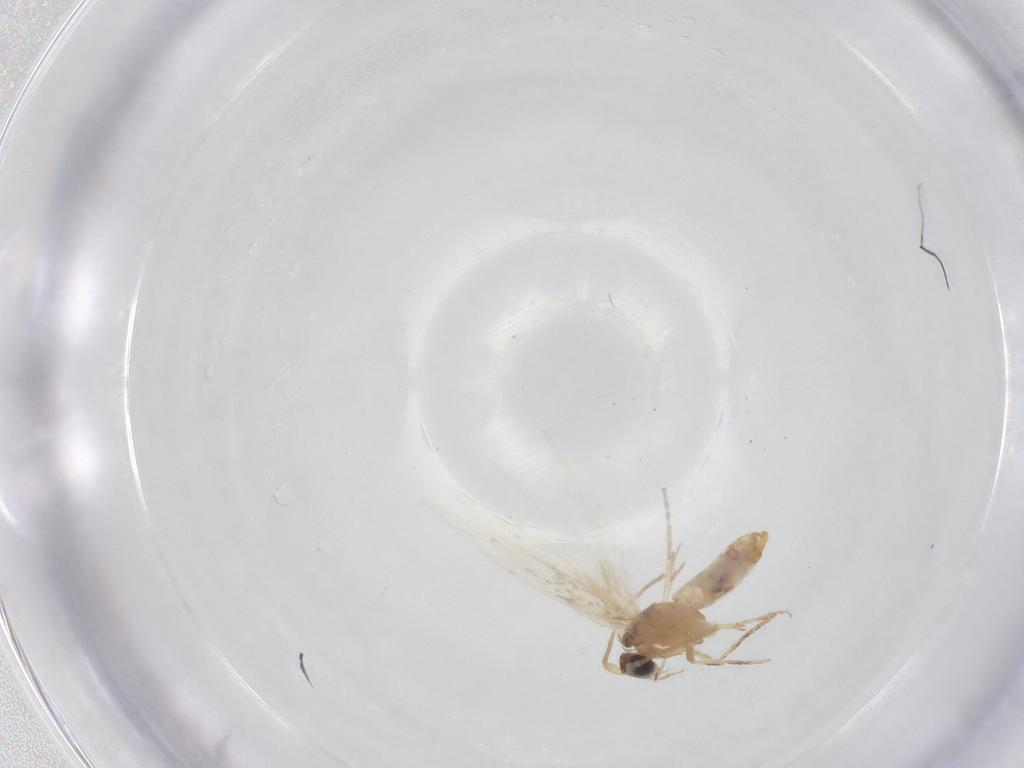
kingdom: Animalia
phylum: Arthropoda
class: Insecta
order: Lepidoptera
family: Nepticulidae
